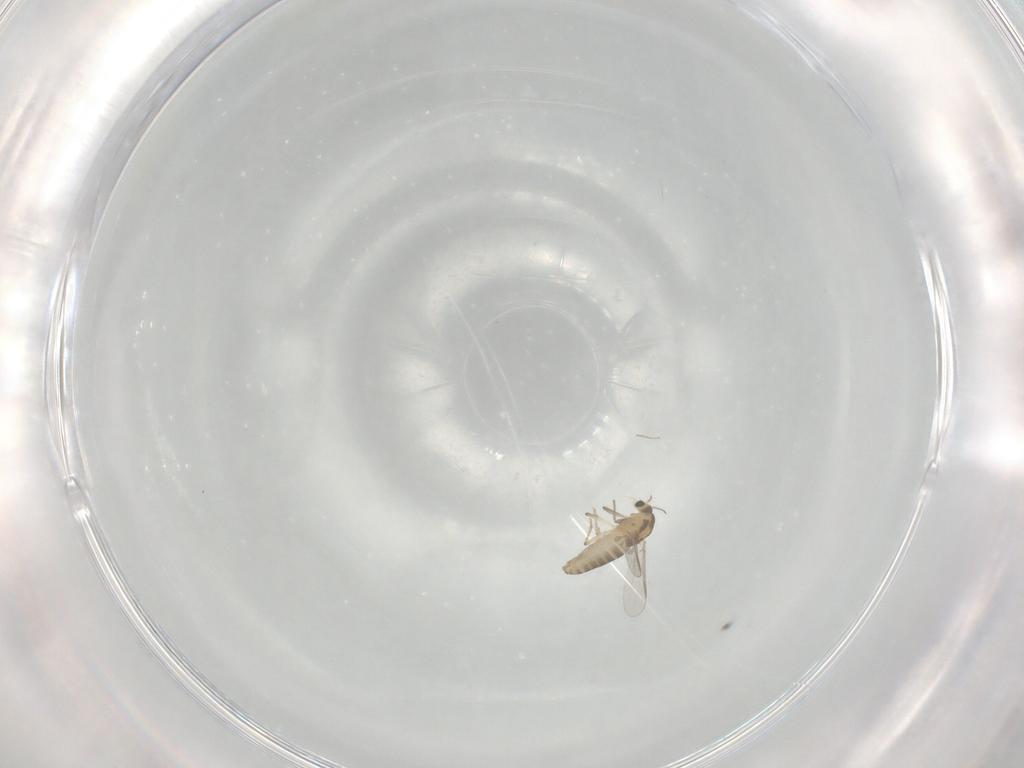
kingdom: Animalia
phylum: Arthropoda
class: Insecta
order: Diptera
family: Chironomidae
